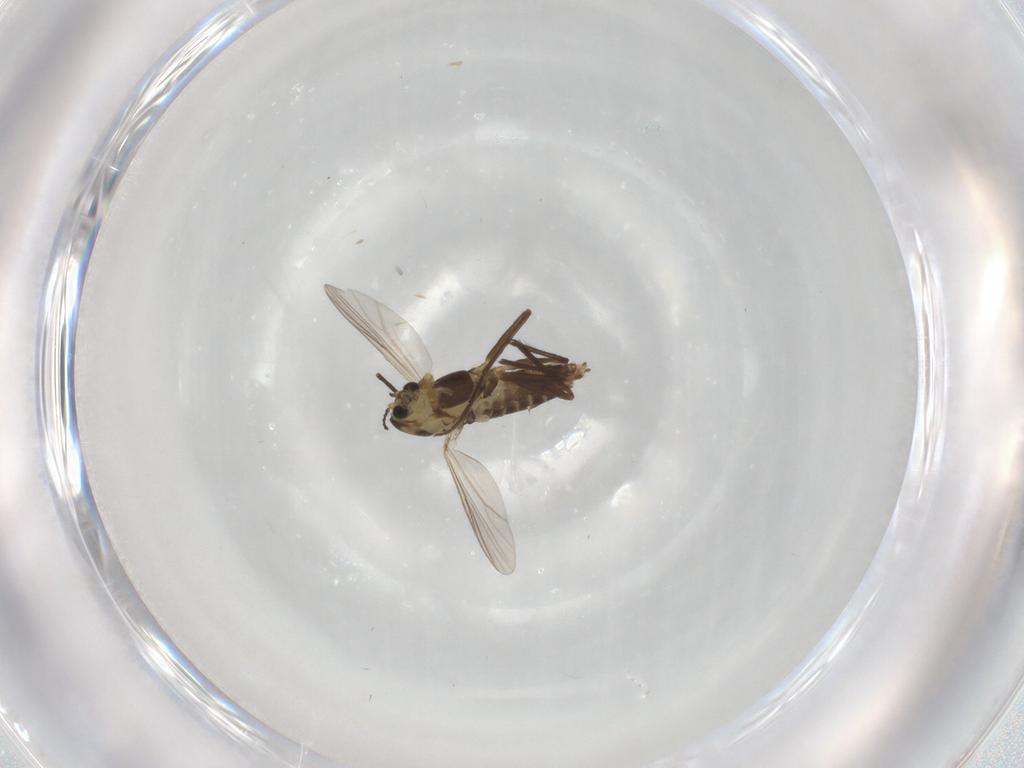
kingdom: Animalia
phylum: Arthropoda
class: Insecta
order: Diptera
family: Chironomidae
